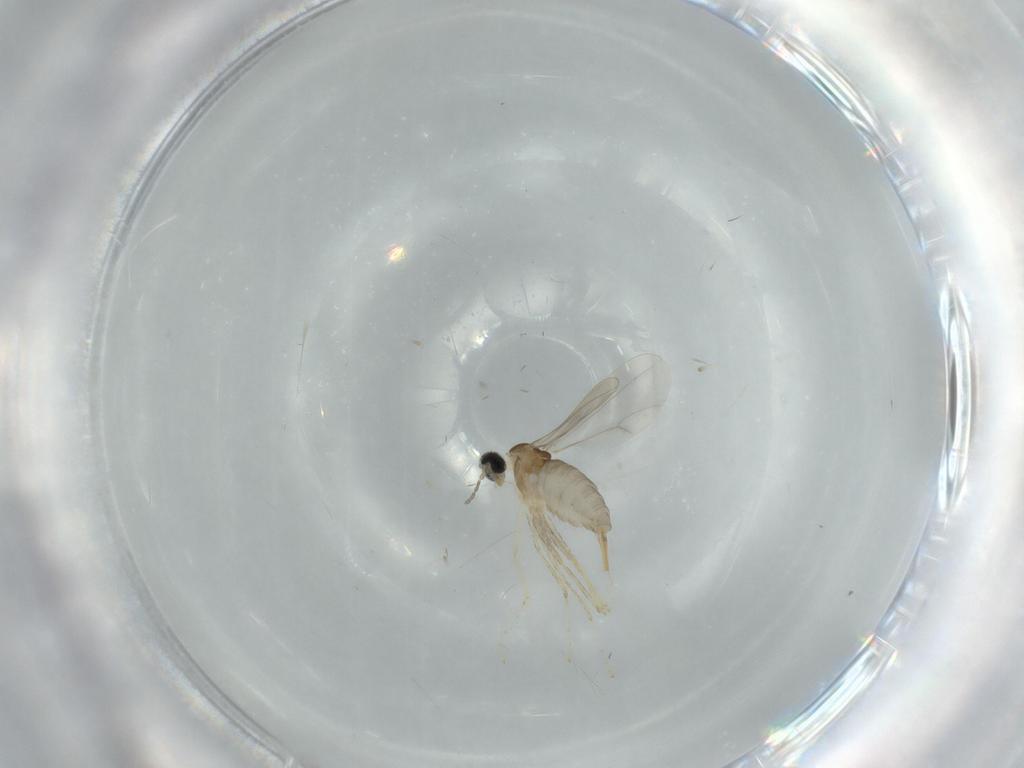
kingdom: Animalia
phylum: Arthropoda
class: Insecta
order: Diptera
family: Cecidomyiidae
